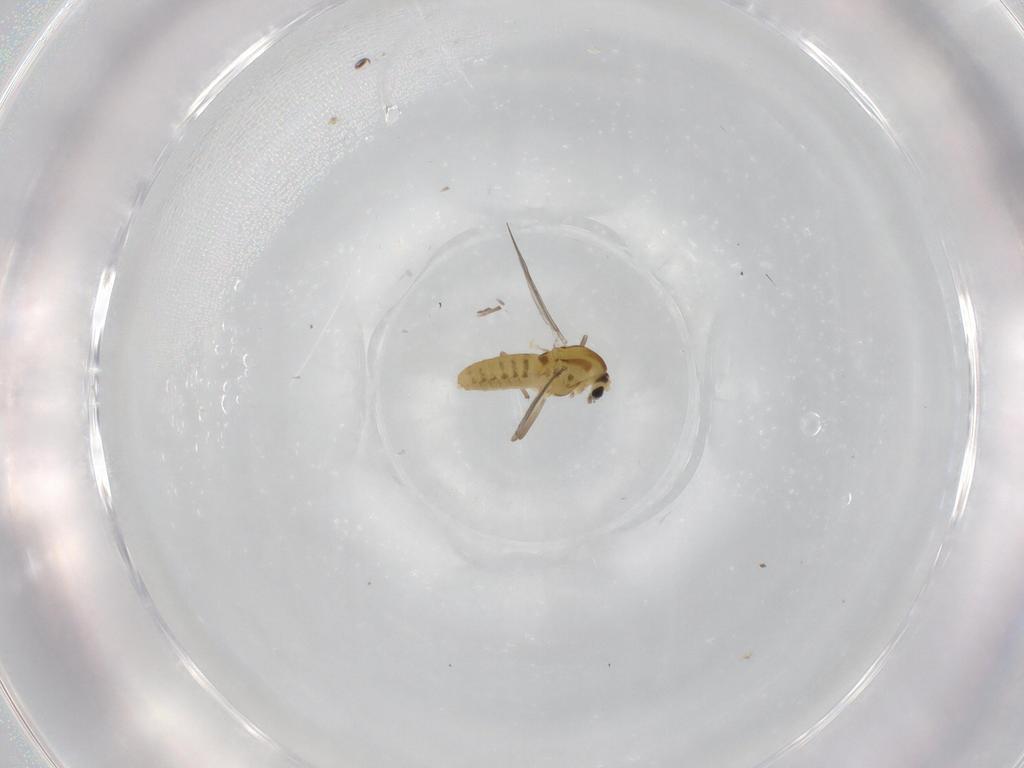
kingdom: Animalia
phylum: Arthropoda
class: Insecta
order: Diptera
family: Chironomidae
